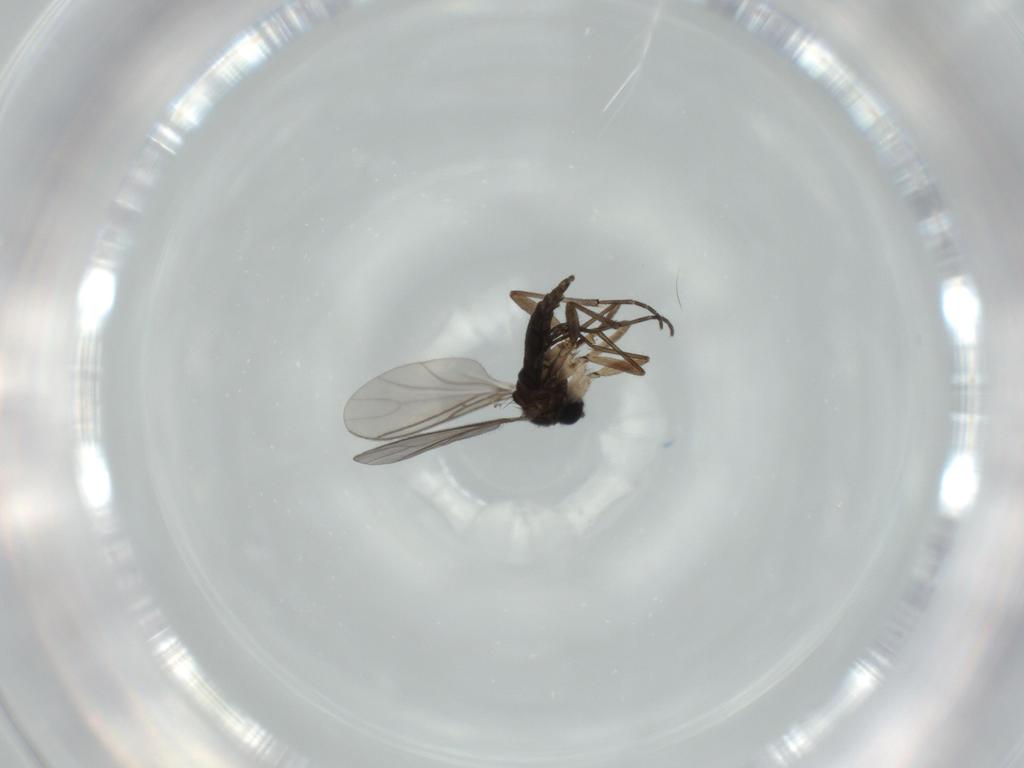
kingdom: Animalia
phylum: Arthropoda
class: Insecta
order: Diptera
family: Sciaridae
